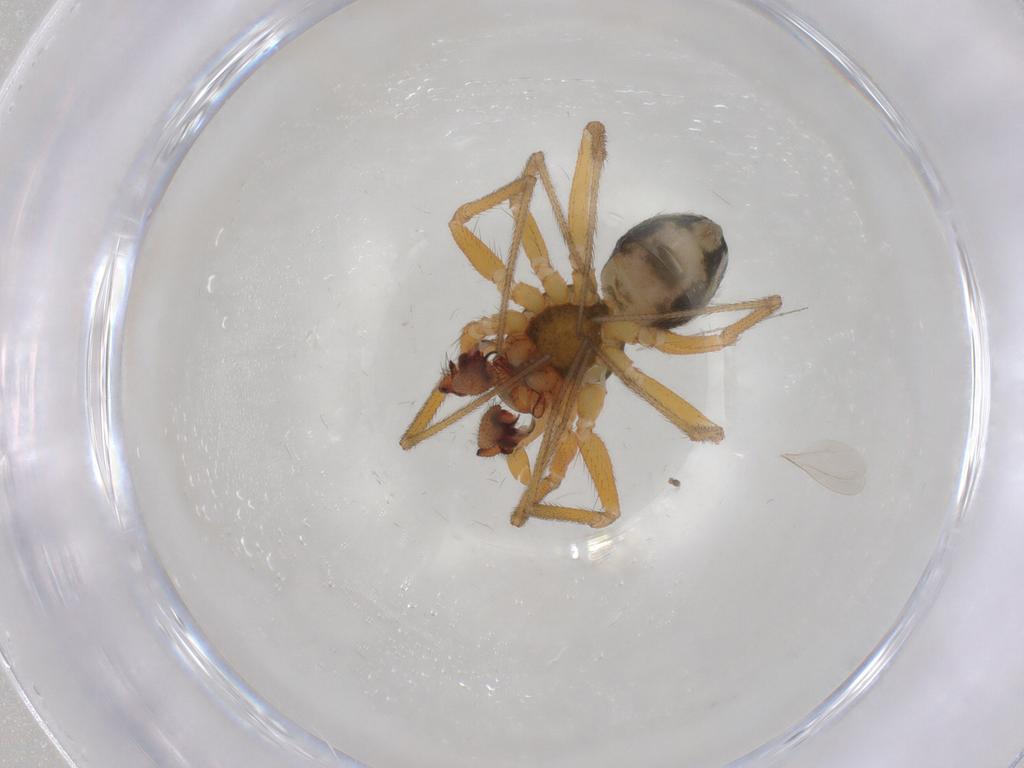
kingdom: Animalia
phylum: Arthropoda
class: Arachnida
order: Araneae
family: Linyphiidae
